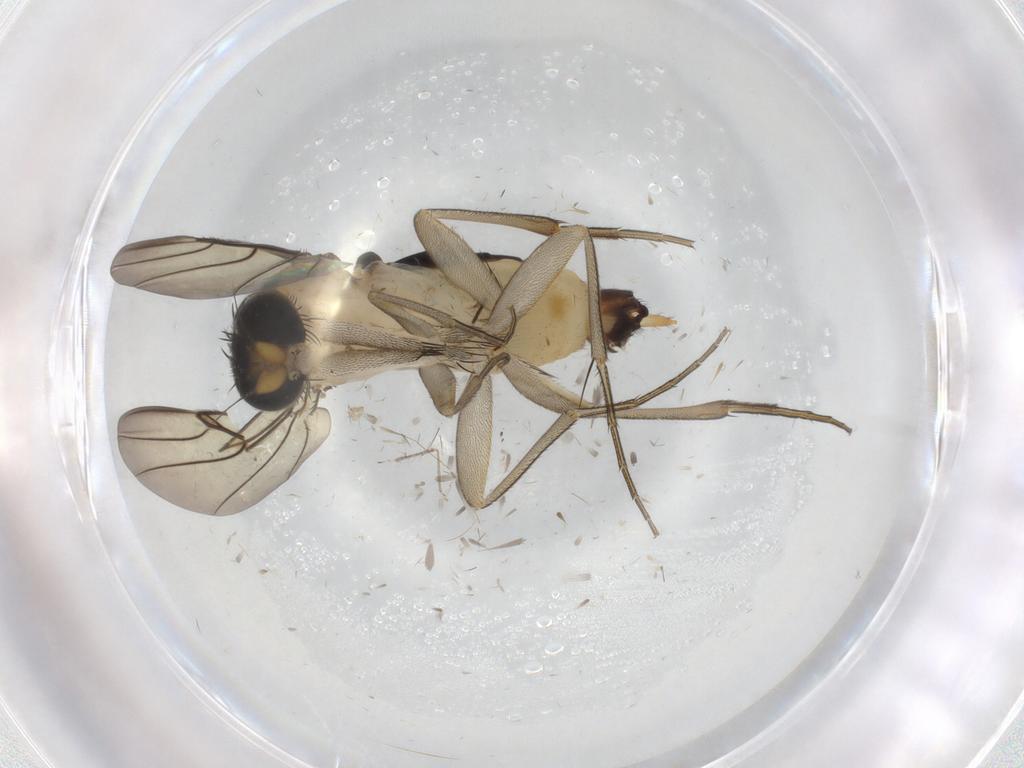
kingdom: Animalia
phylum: Arthropoda
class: Insecta
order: Diptera
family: Phoridae
